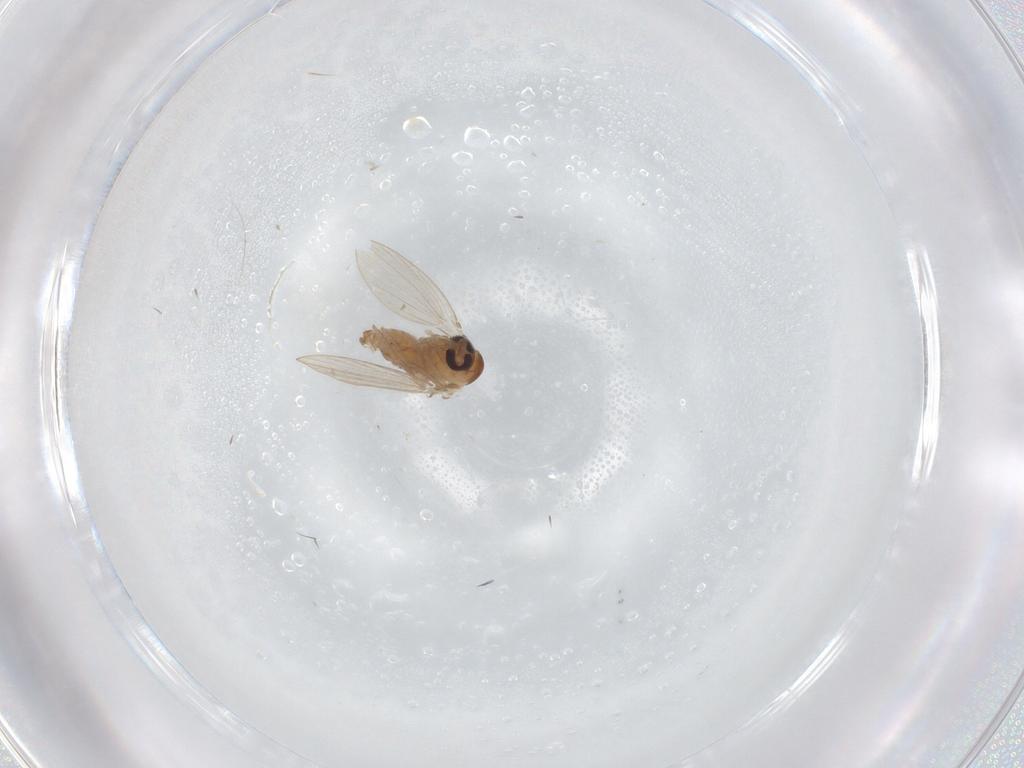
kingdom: Animalia
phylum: Arthropoda
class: Insecta
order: Diptera
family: Psychodidae
